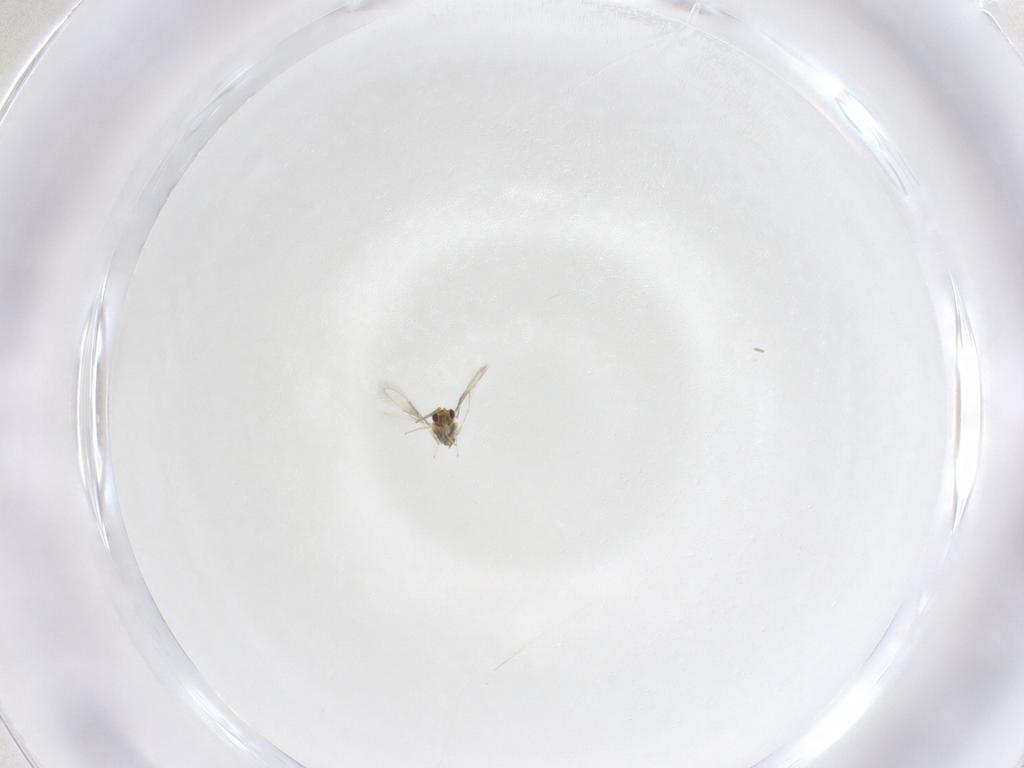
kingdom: Animalia
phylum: Arthropoda
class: Insecta
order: Hymenoptera
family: Aphelinidae
